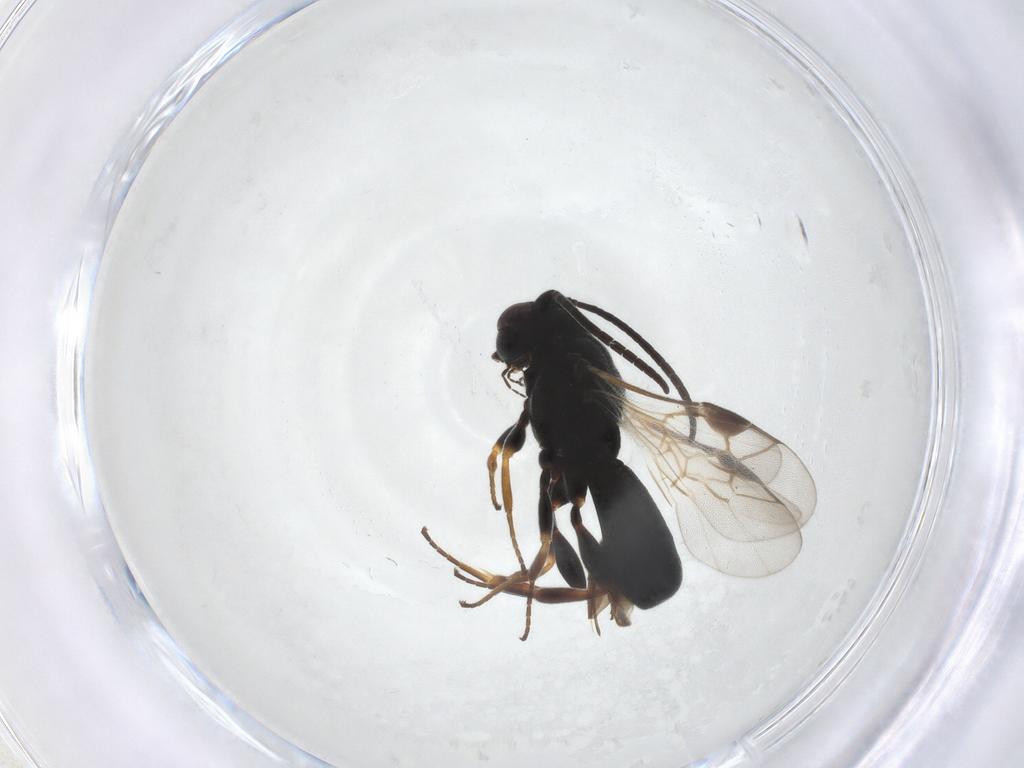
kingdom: Animalia
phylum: Arthropoda
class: Insecta
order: Hymenoptera
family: Braconidae
